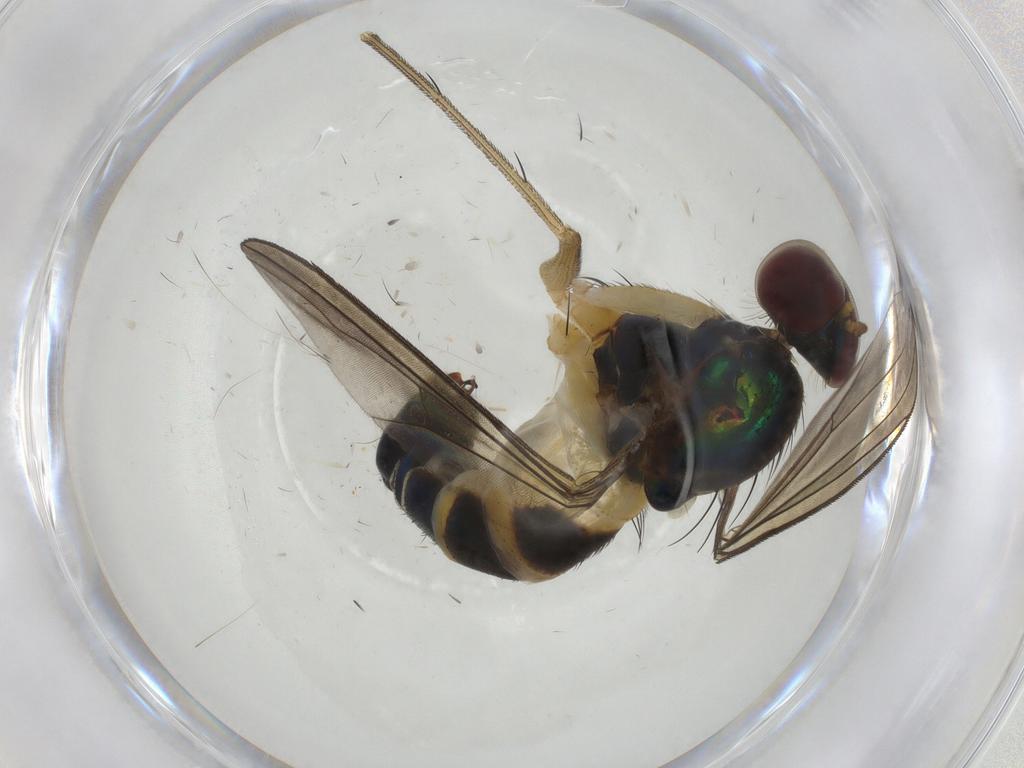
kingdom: Animalia
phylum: Arthropoda
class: Insecta
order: Diptera
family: Dolichopodidae
